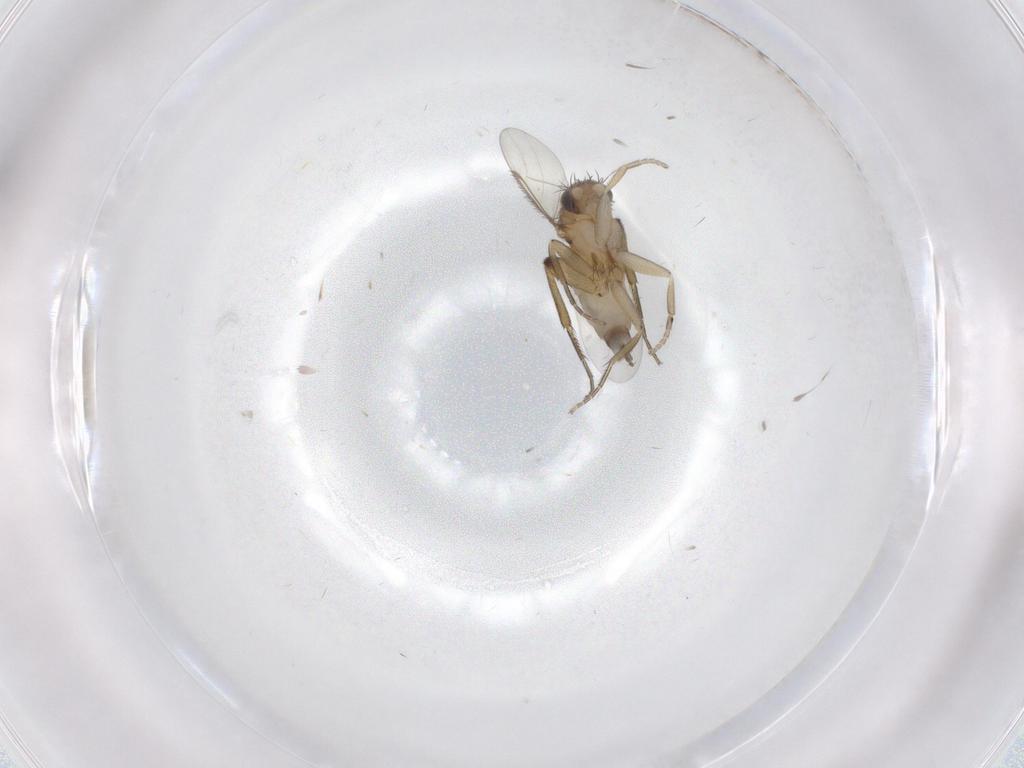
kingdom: Animalia
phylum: Arthropoda
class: Insecta
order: Diptera
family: Phoridae
